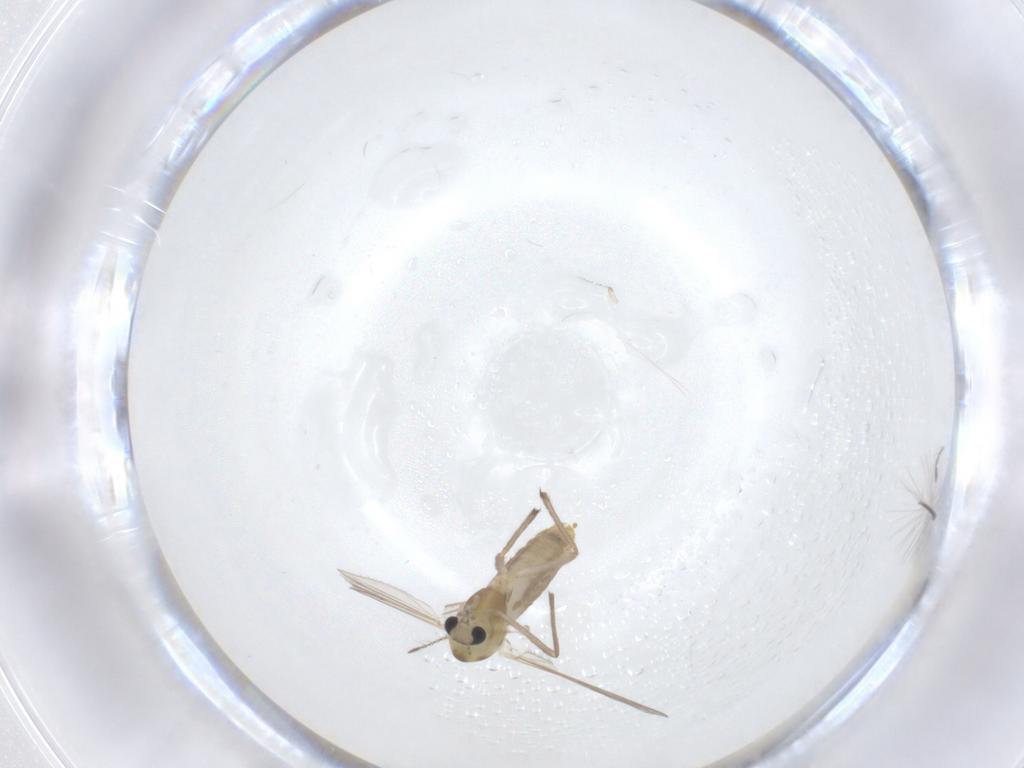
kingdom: Animalia
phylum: Arthropoda
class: Insecta
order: Diptera
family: Chironomidae
